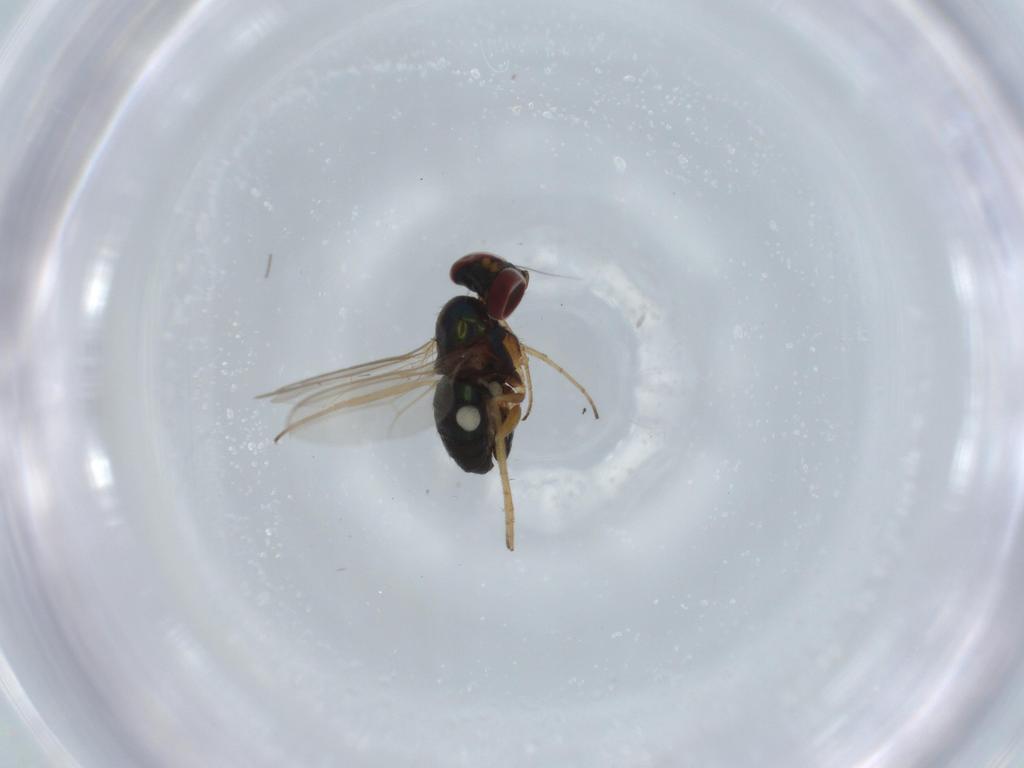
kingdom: Animalia
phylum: Arthropoda
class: Insecta
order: Diptera
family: Dolichopodidae
